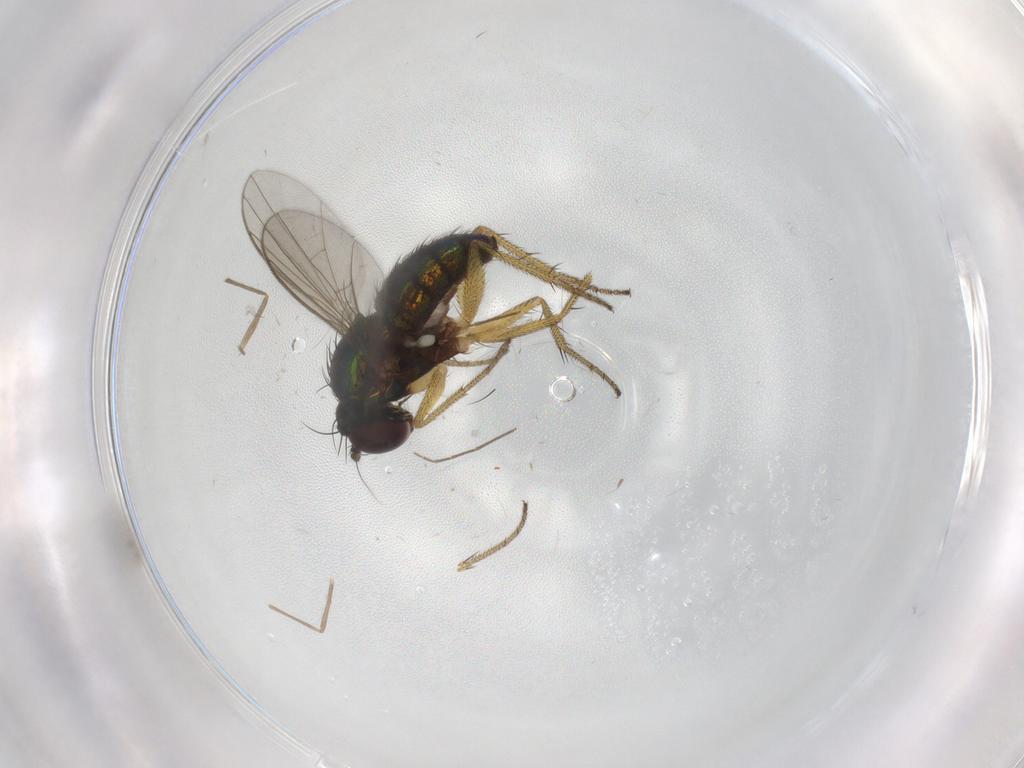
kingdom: Animalia
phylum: Arthropoda
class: Insecta
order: Diptera
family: Chironomidae
